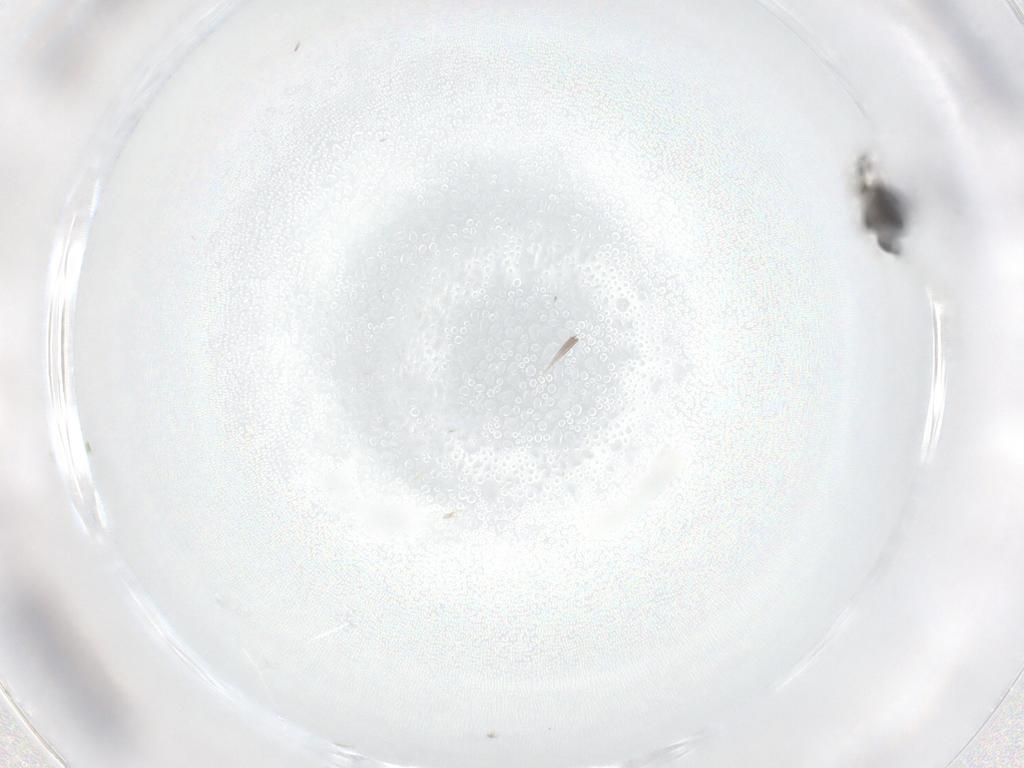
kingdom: Animalia
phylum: Arthropoda
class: Insecta
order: Hymenoptera
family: Mymaridae
